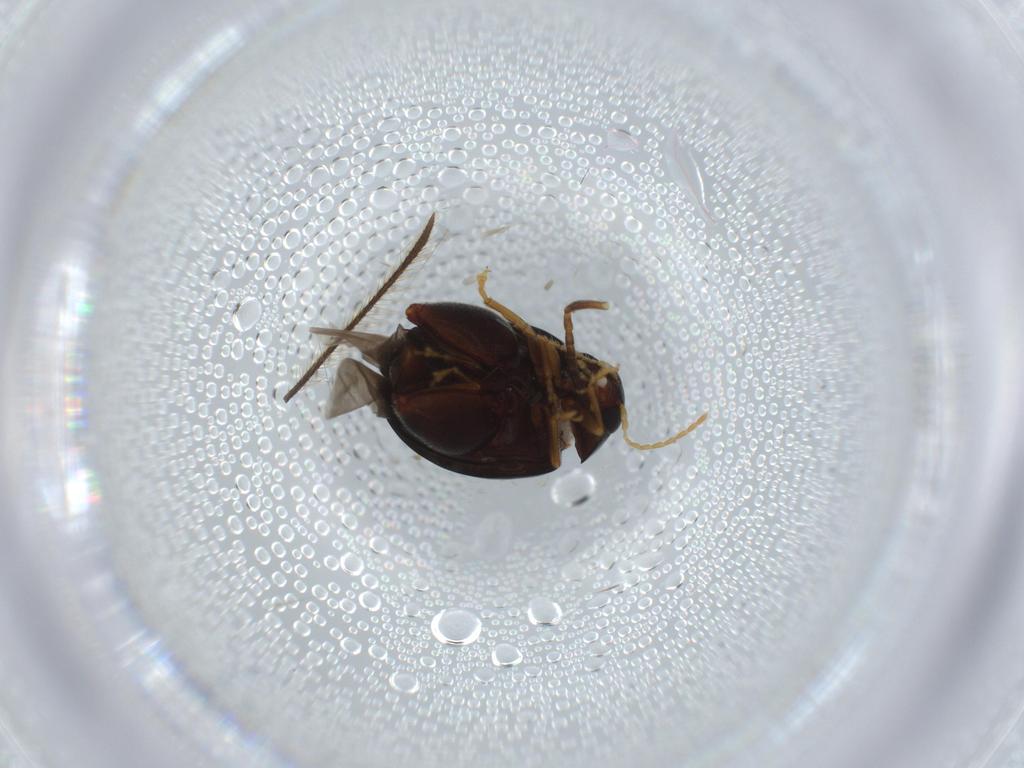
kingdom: Animalia
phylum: Arthropoda
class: Insecta
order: Coleoptera
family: Chrysomelidae
